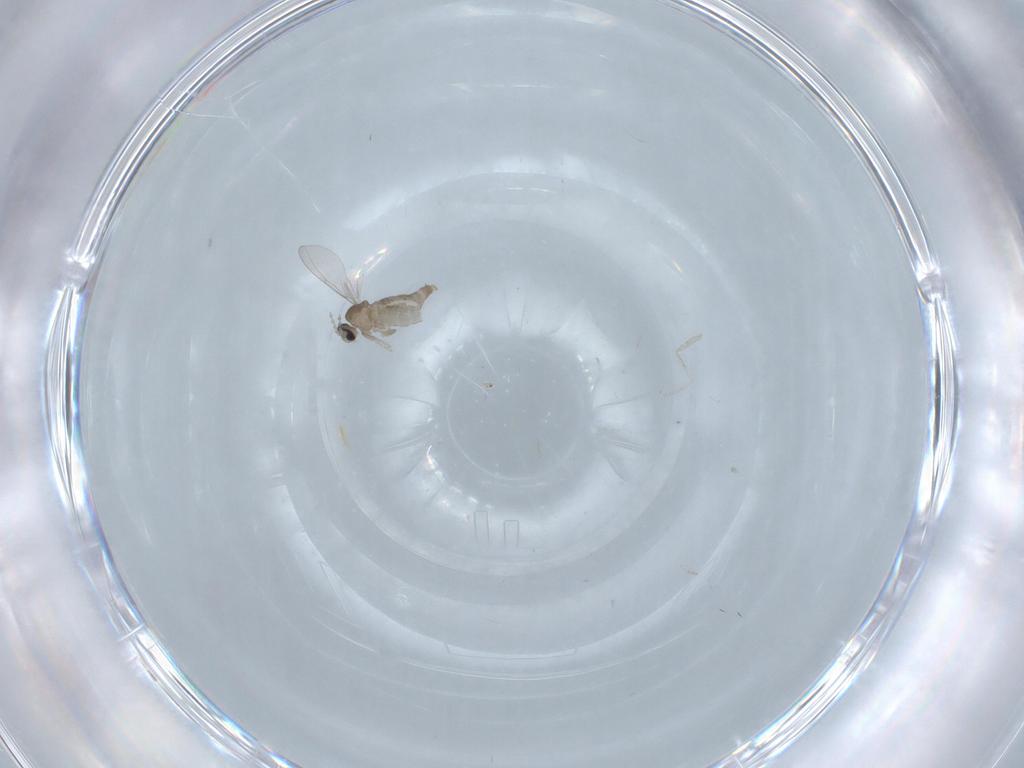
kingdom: Animalia
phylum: Arthropoda
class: Insecta
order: Diptera
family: Cecidomyiidae
